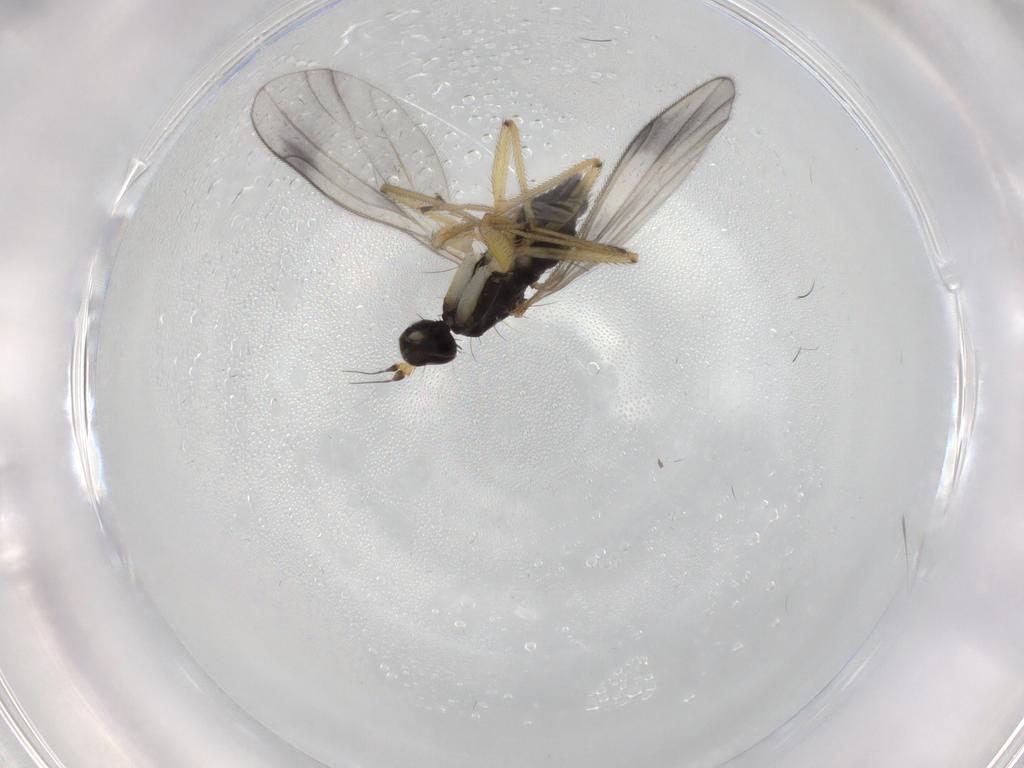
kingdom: Animalia
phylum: Arthropoda
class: Insecta
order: Diptera
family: Empididae
